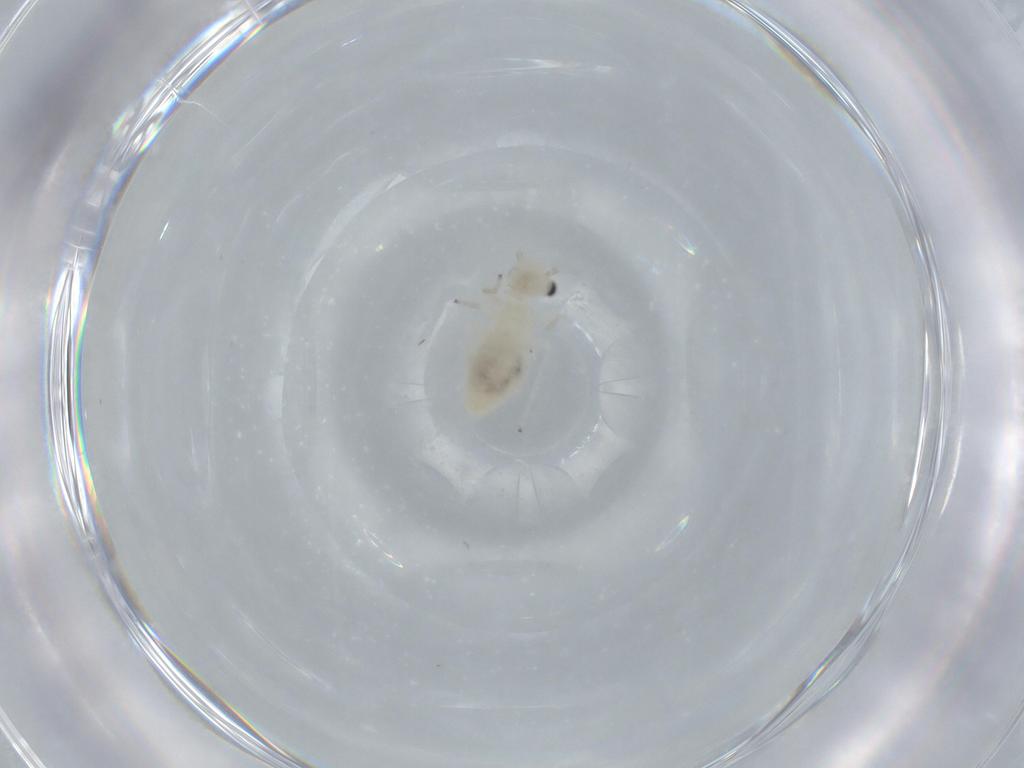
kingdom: Animalia
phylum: Arthropoda
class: Insecta
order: Psocodea
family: Caeciliusidae
